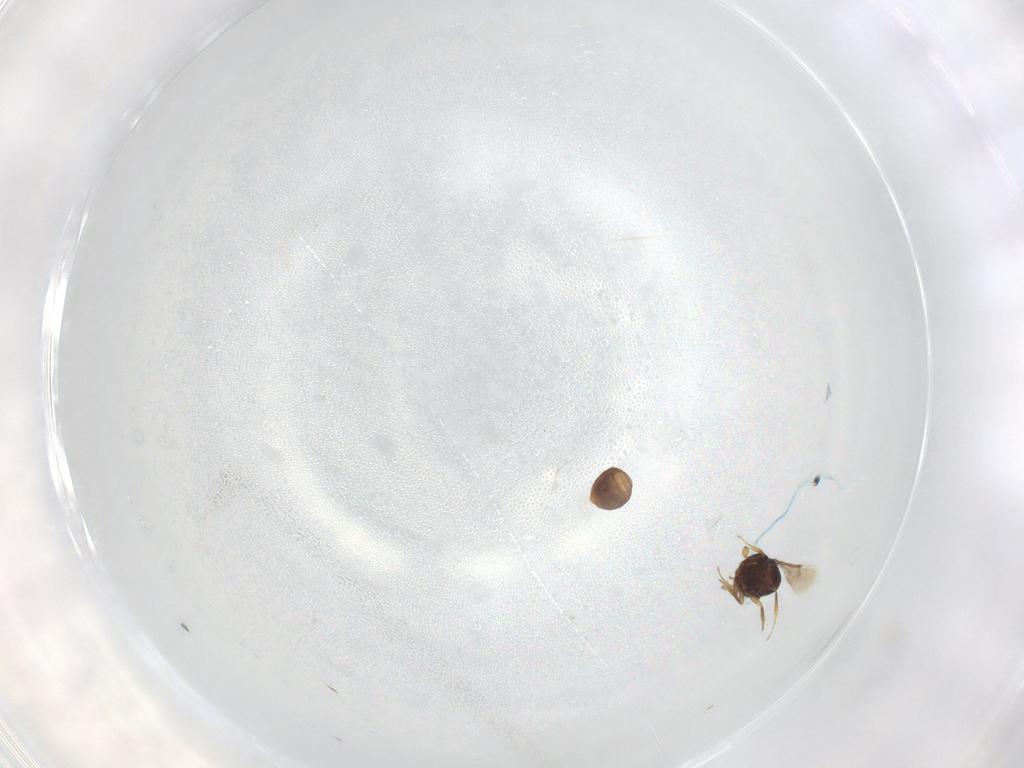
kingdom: Animalia
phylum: Arthropoda
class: Insecta
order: Hymenoptera
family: Scelionidae
